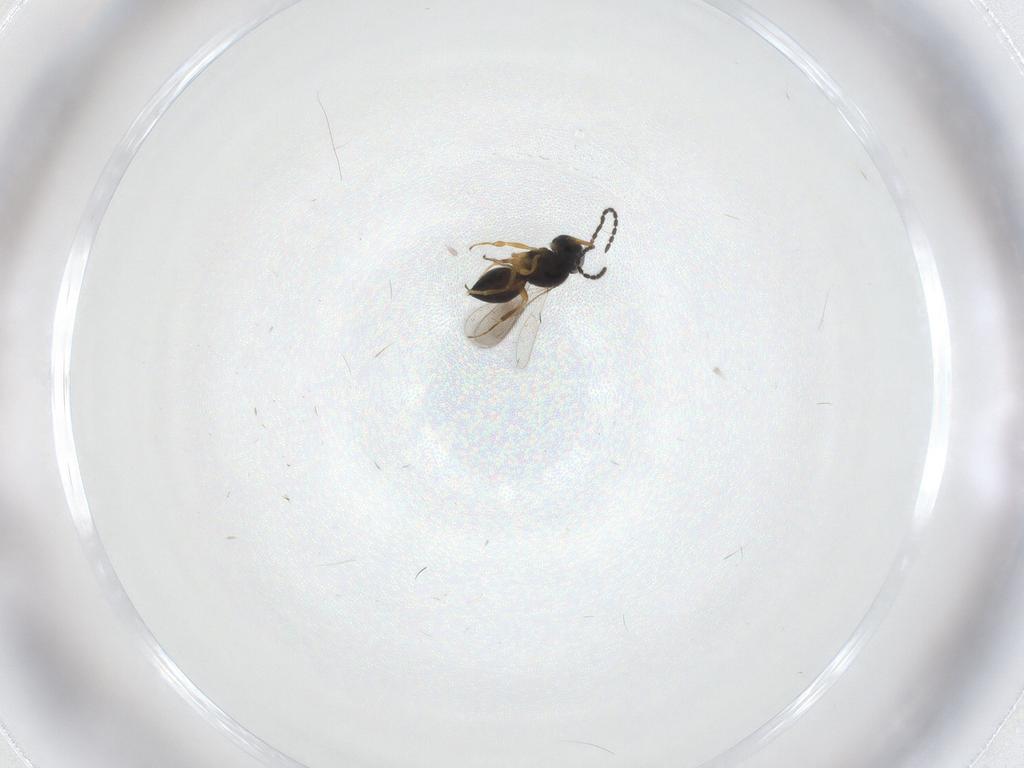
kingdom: Animalia
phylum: Arthropoda
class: Insecta
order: Hymenoptera
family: Scelionidae
